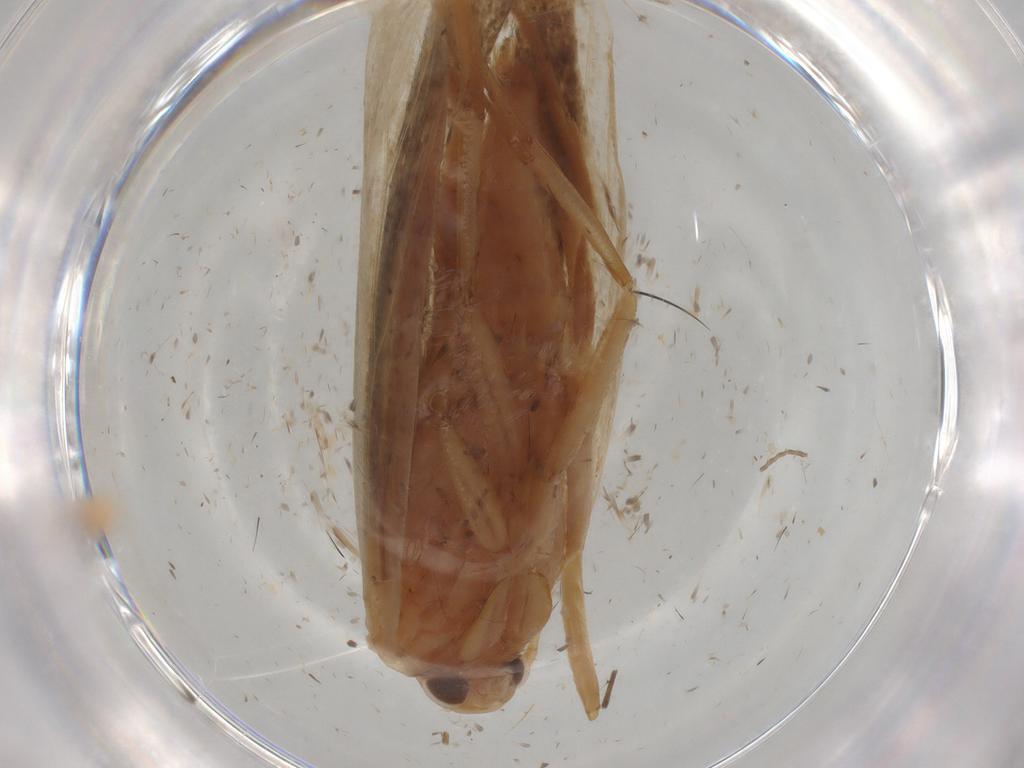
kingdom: Animalia
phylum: Arthropoda
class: Insecta
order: Lepidoptera
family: Gelechiidae
